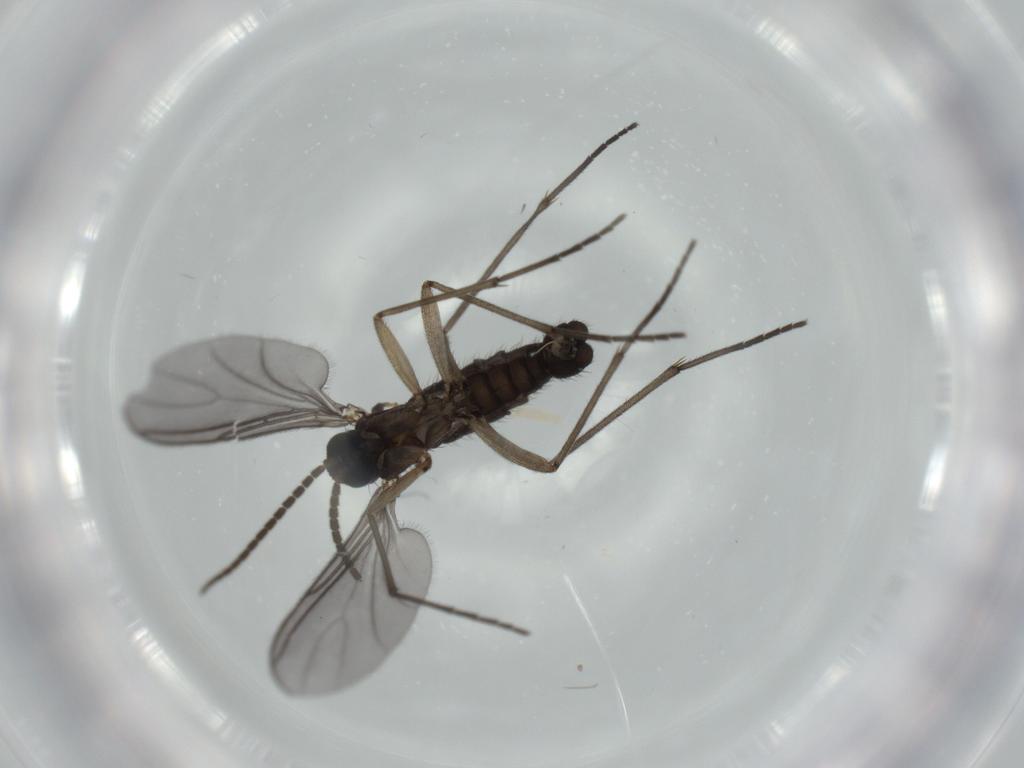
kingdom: Animalia
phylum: Arthropoda
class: Insecta
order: Diptera
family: Sciaridae
